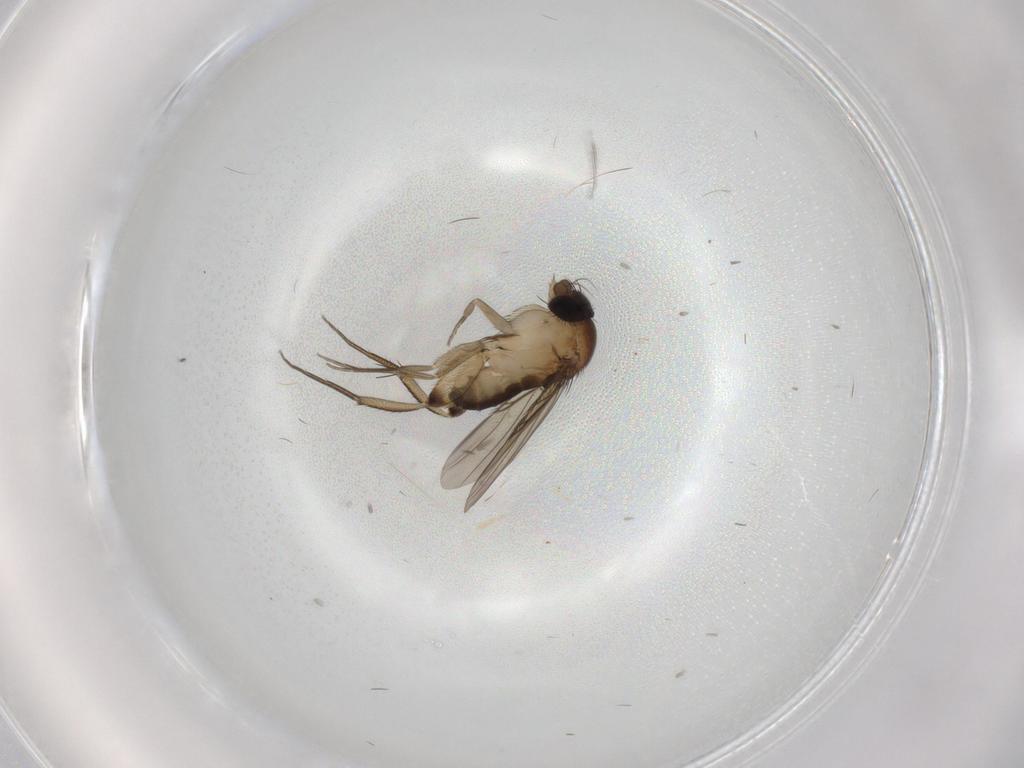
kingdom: Animalia
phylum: Arthropoda
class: Insecta
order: Diptera
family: Phoridae
